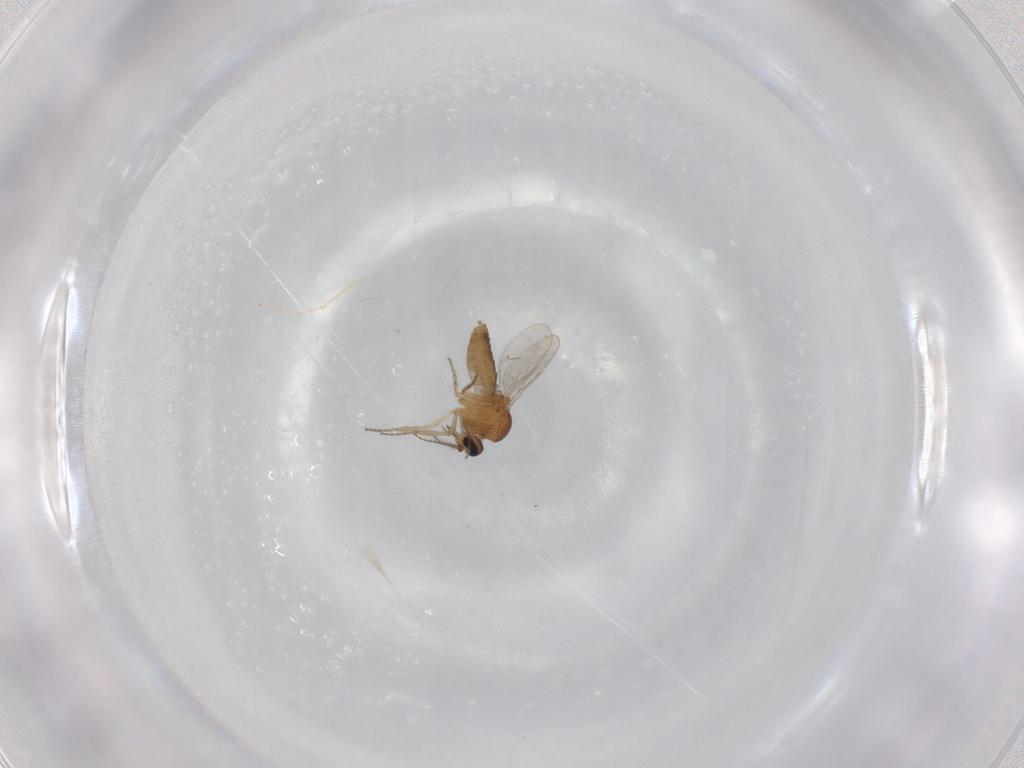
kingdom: Animalia
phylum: Arthropoda
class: Insecta
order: Diptera
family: Ceratopogonidae
